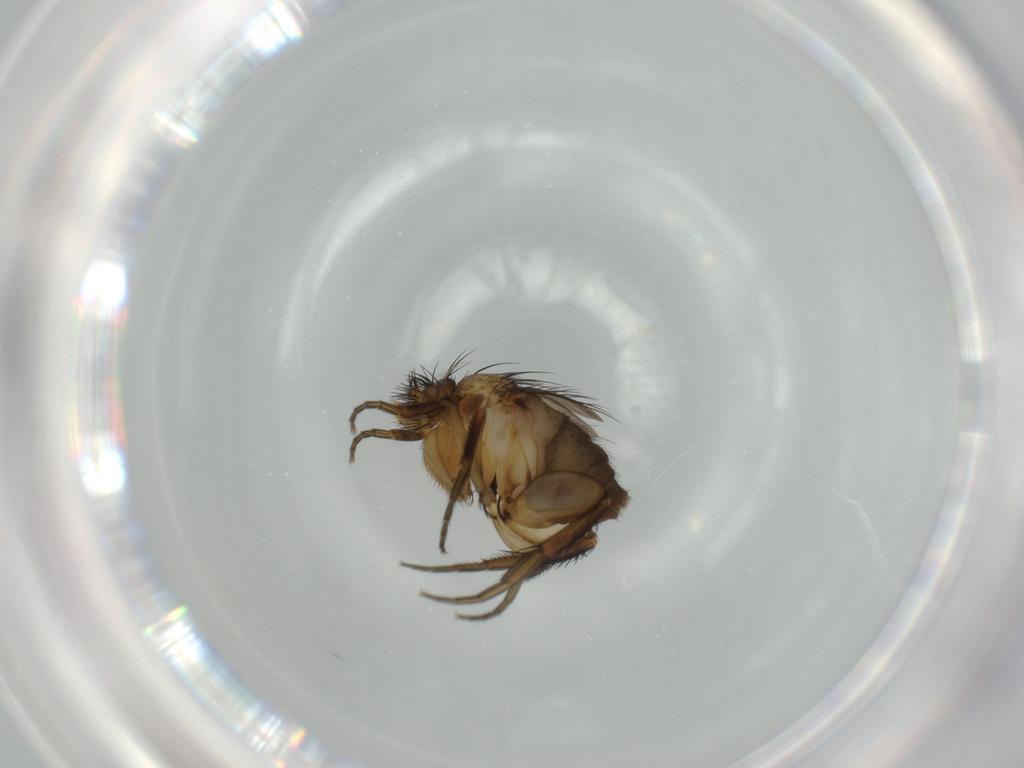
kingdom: Animalia
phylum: Arthropoda
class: Insecta
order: Diptera
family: Phoridae
